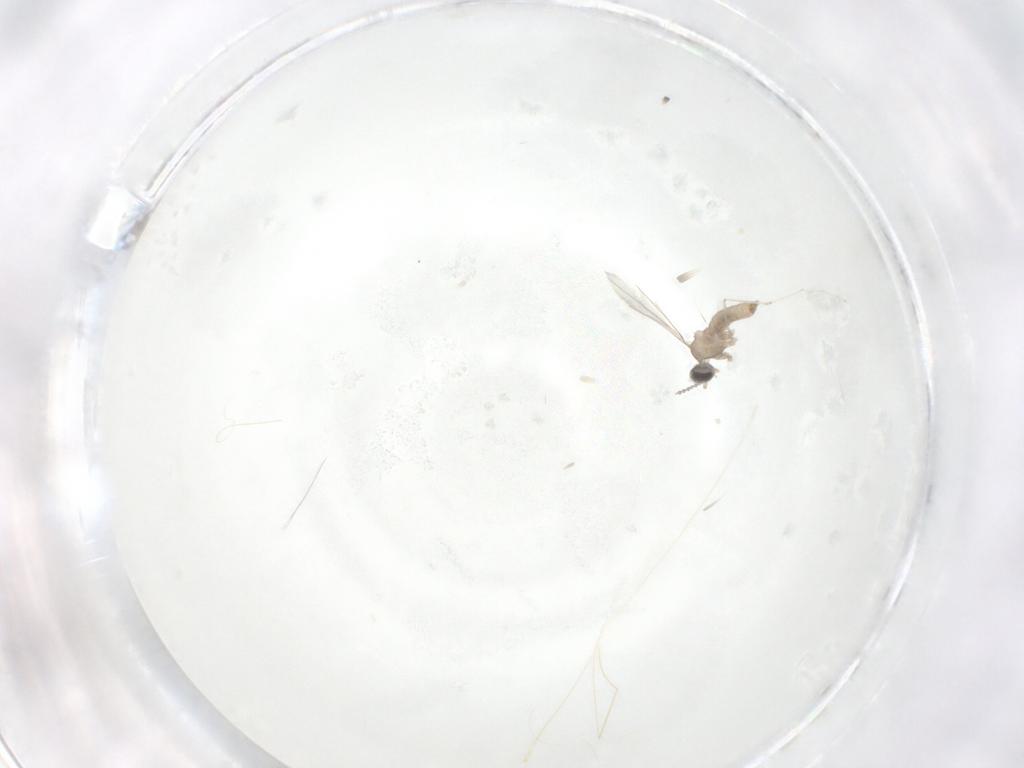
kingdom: Animalia
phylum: Arthropoda
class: Insecta
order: Diptera
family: Cecidomyiidae
